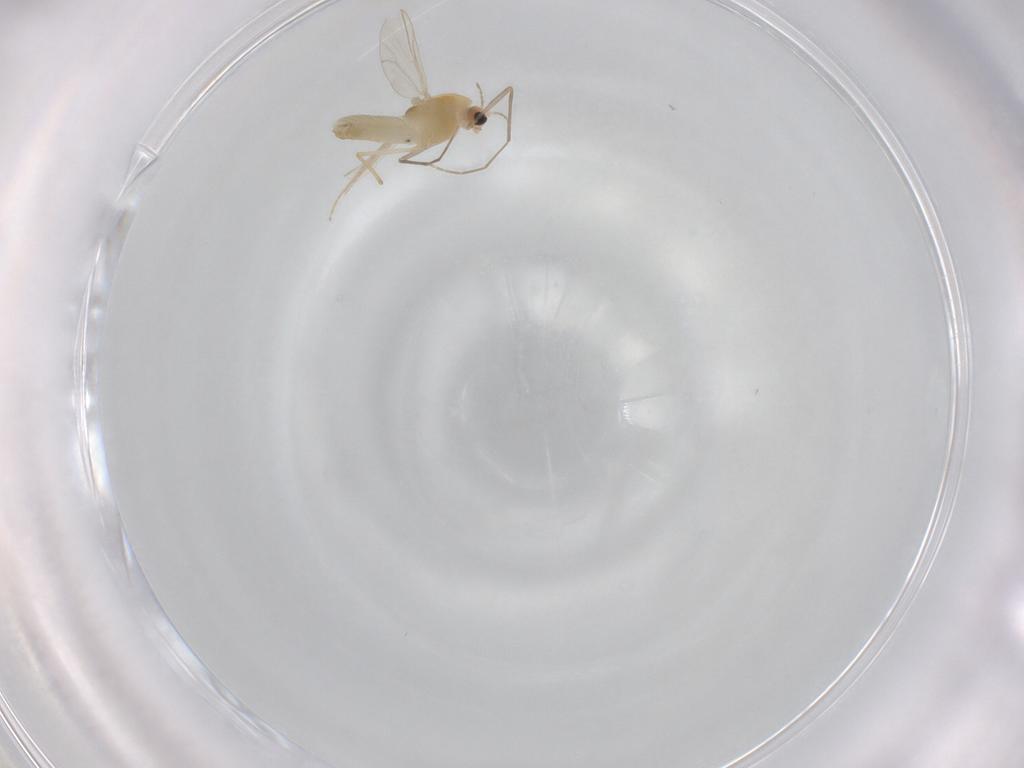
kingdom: Animalia
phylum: Arthropoda
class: Insecta
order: Diptera
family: Chironomidae
